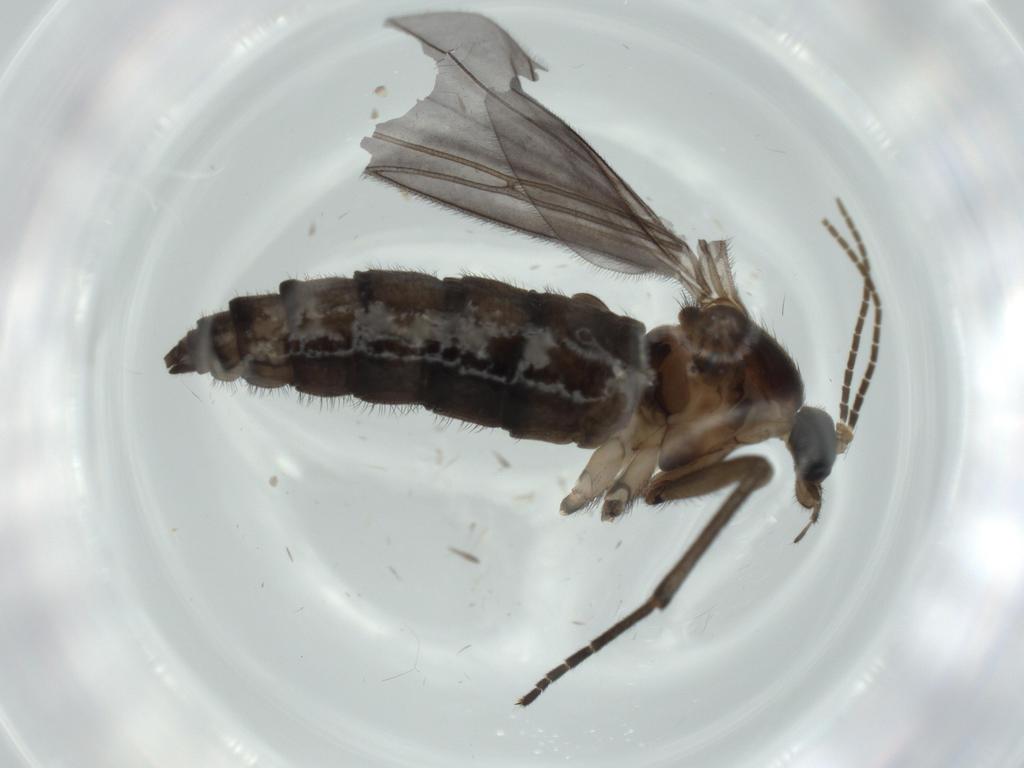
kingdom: Animalia
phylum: Arthropoda
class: Insecta
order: Diptera
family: Sciaridae
